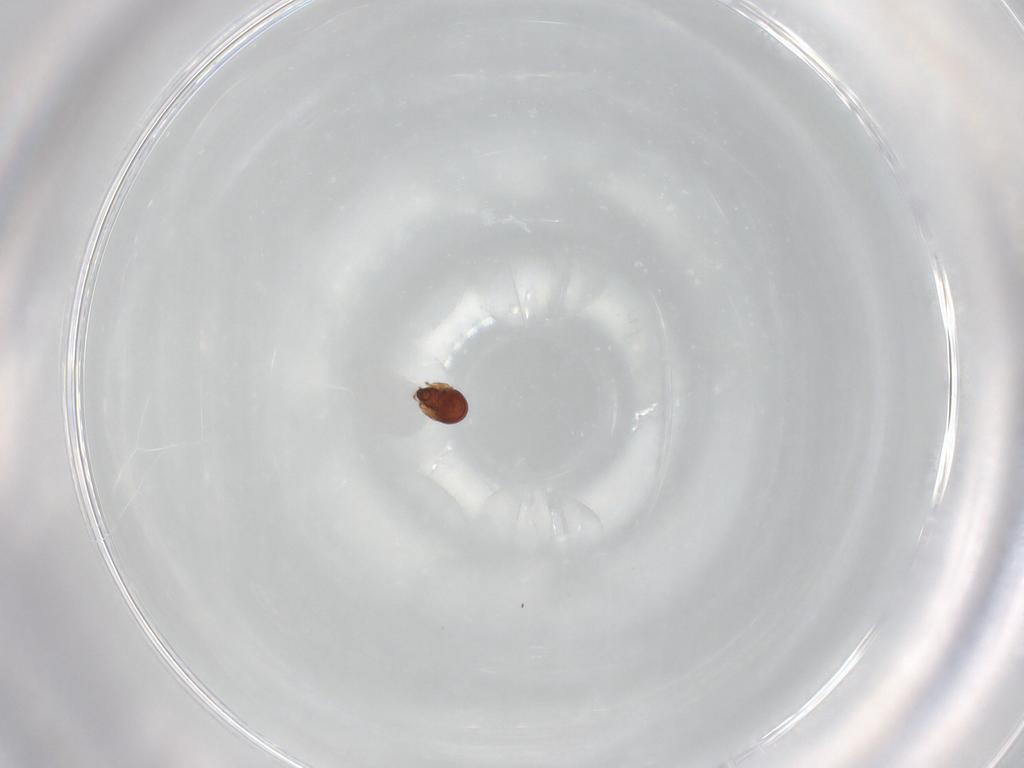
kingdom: Animalia
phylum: Arthropoda
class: Arachnida
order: Sarcoptiformes
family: Ceratozetidae
